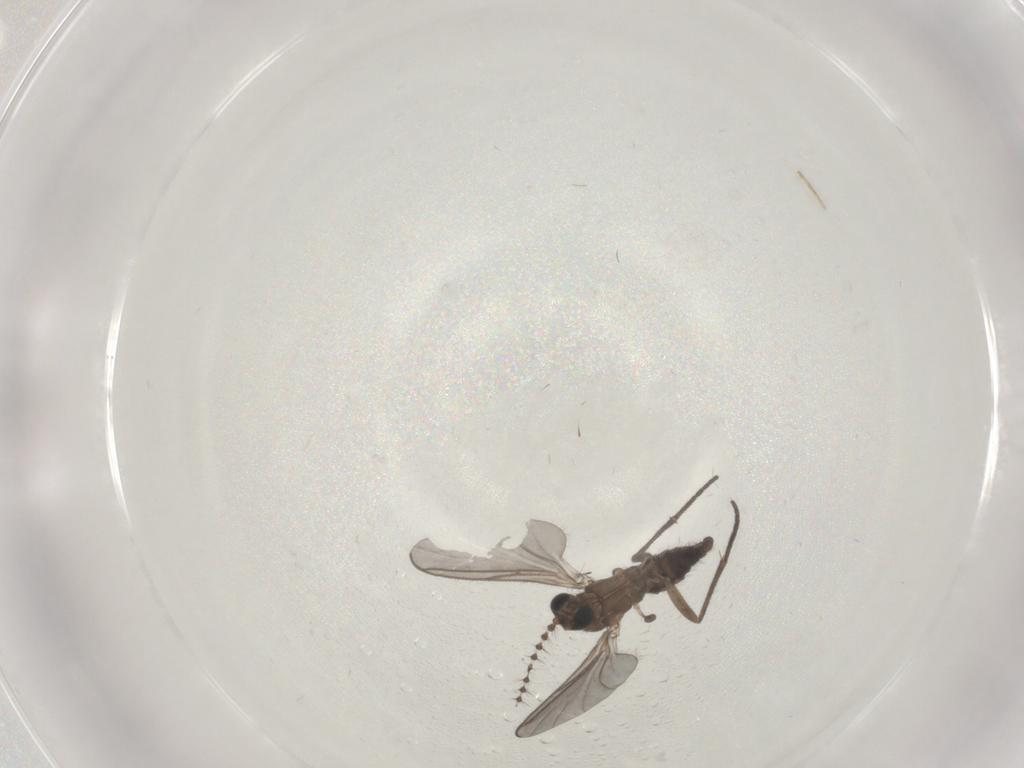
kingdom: Animalia
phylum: Arthropoda
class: Insecta
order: Diptera
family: Sciaridae
